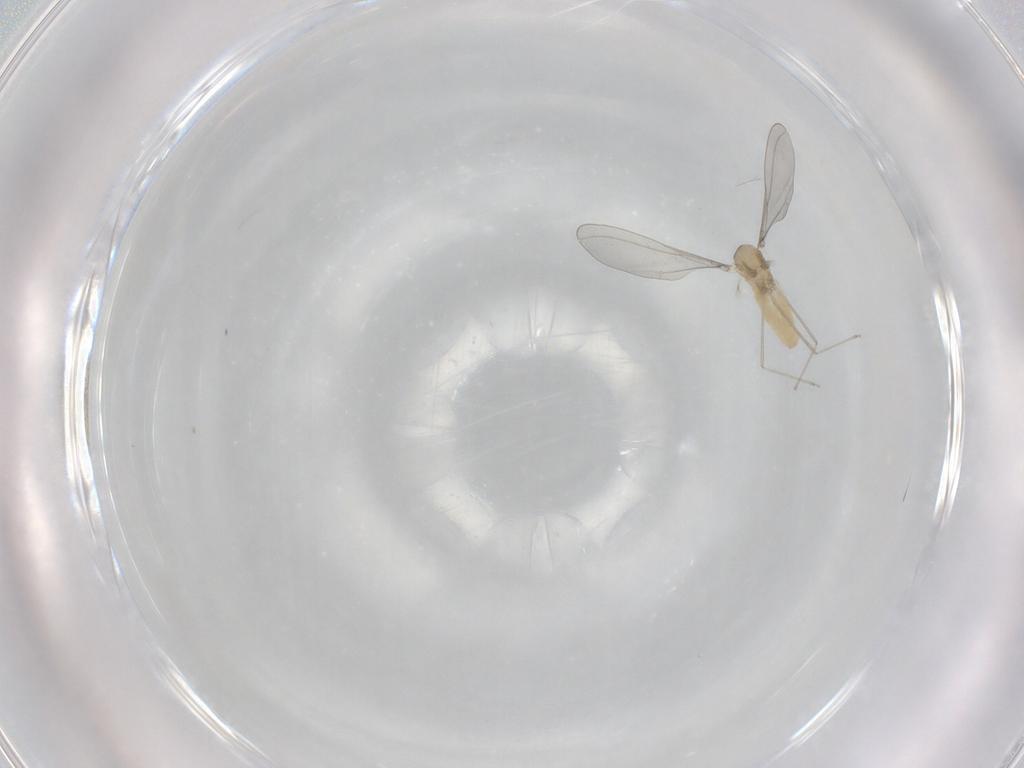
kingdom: Animalia
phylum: Arthropoda
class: Insecta
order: Diptera
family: Cecidomyiidae
